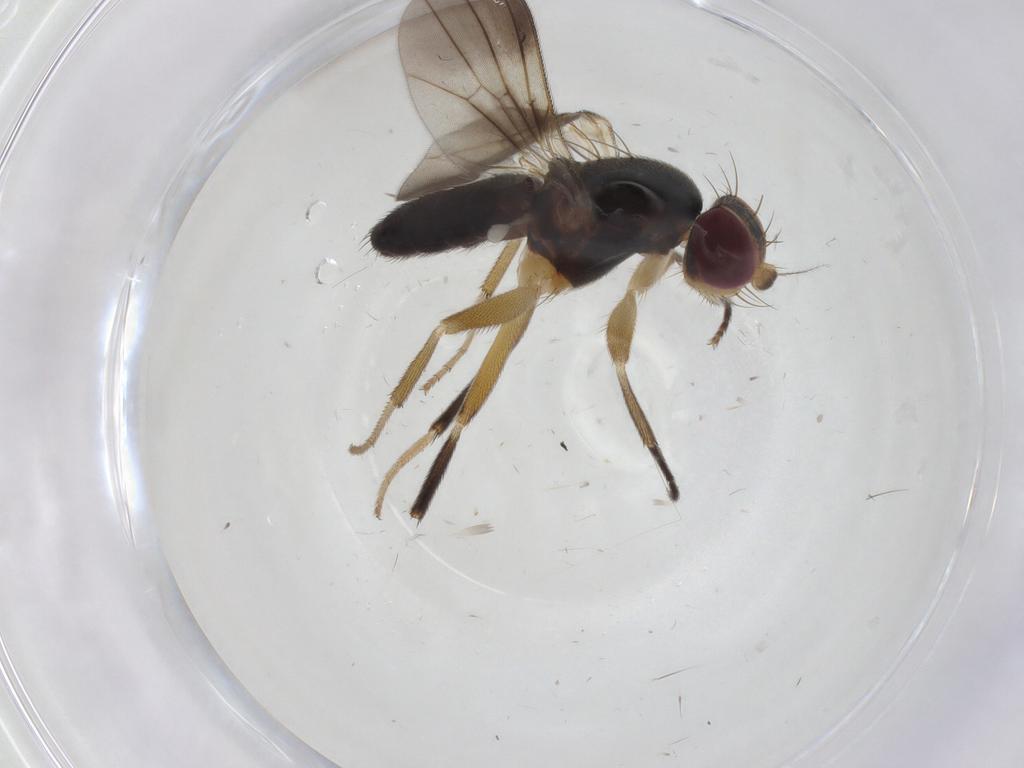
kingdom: Animalia
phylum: Arthropoda
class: Insecta
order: Diptera
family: Clusiidae
